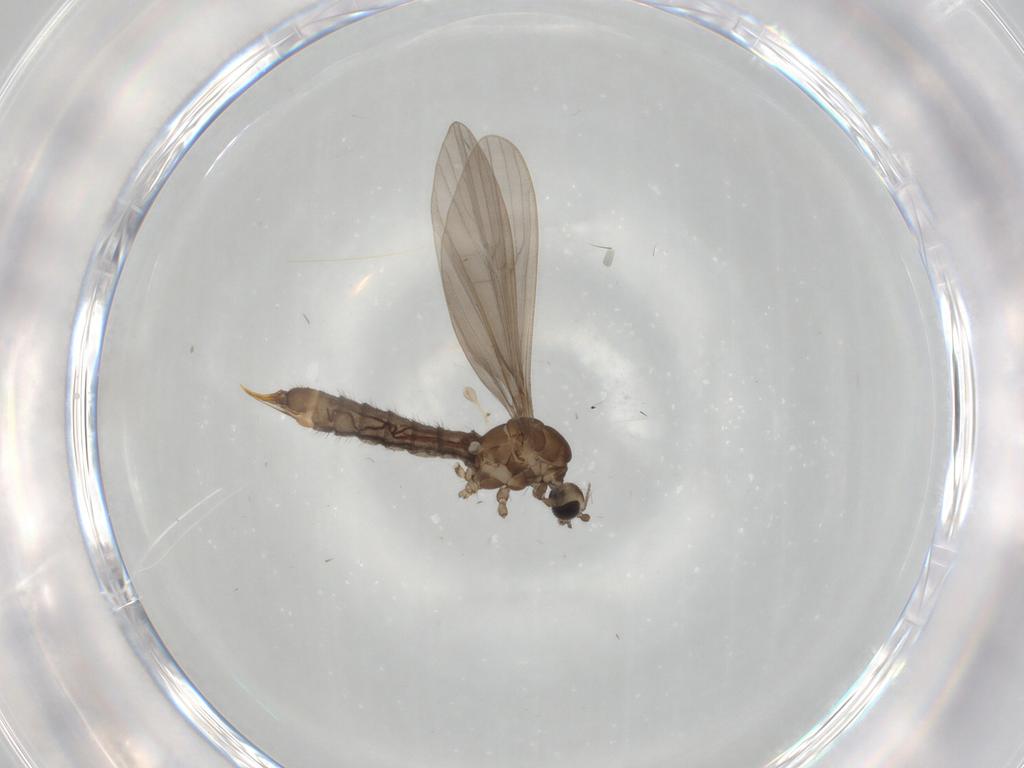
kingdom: Animalia
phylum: Arthropoda
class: Insecta
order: Diptera
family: Limoniidae
